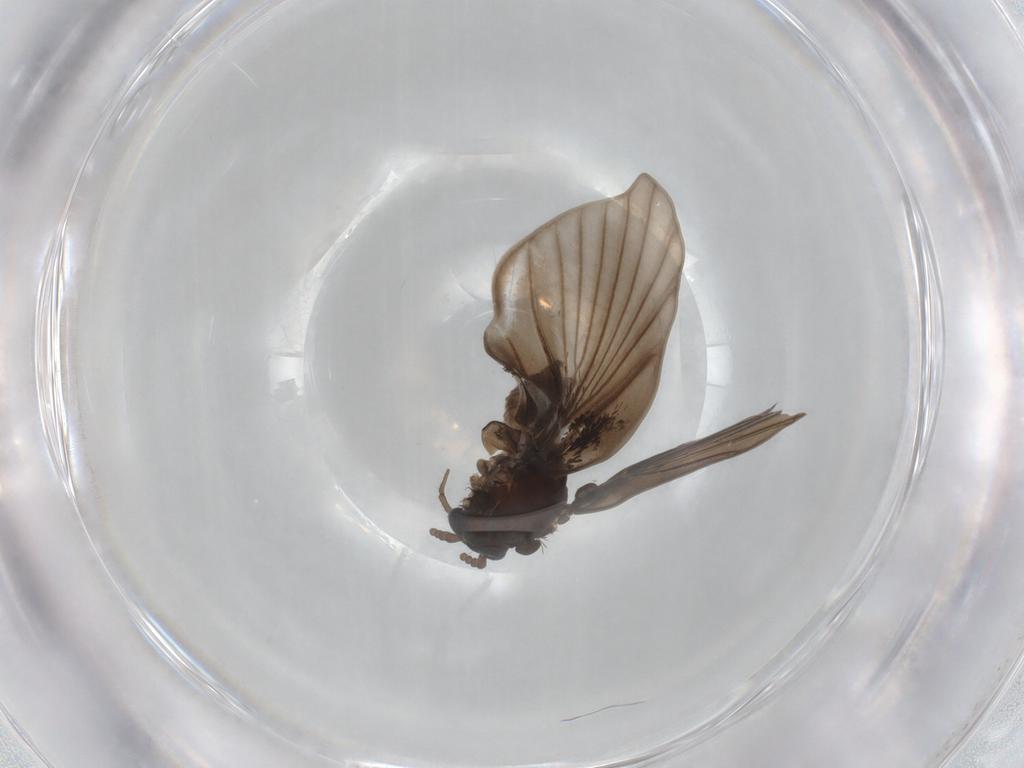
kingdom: Animalia
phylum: Arthropoda
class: Insecta
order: Diptera
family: Psychodidae
